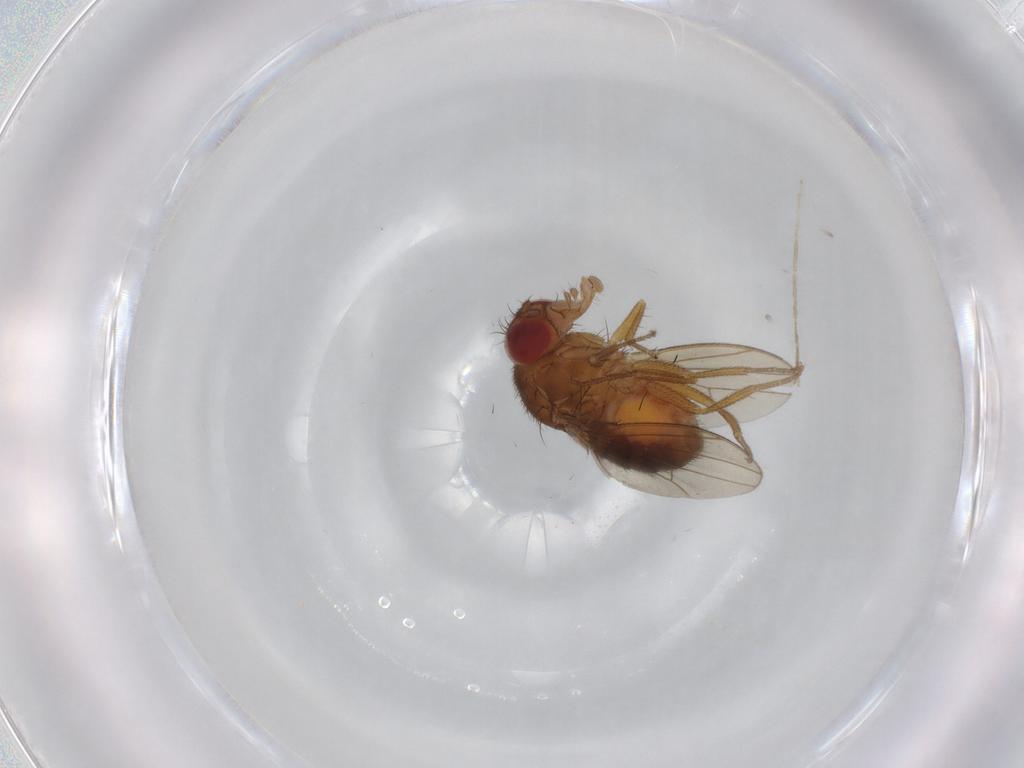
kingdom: Animalia
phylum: Arthropoda
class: Insecta
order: Diptera
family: Drosophilidae
